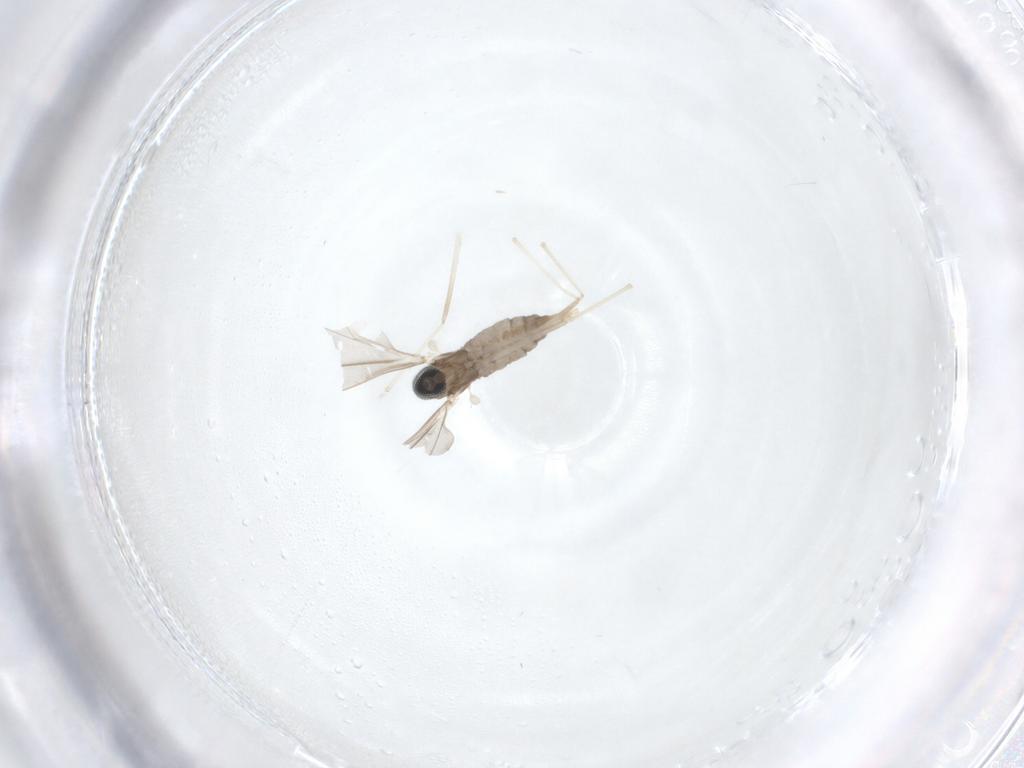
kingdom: Animalia
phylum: Arthropoda
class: Insecta
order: Diptera
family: Cecidomyiidae
